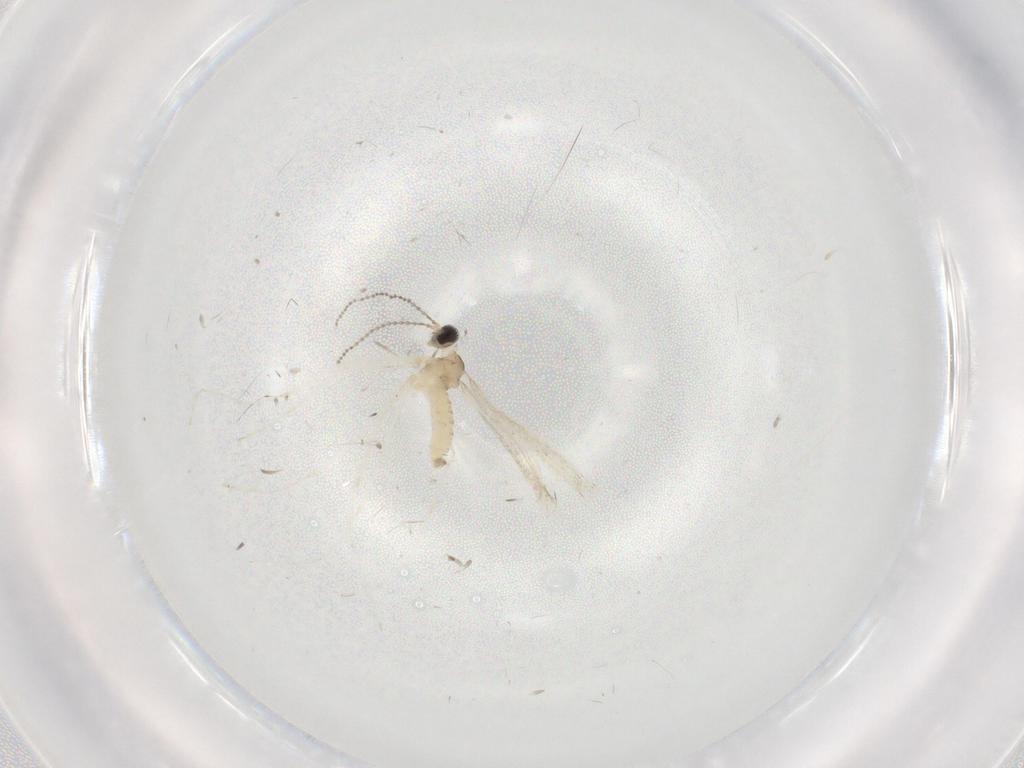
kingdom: Animalia
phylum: Arthropoda
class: Insecta
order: Diptera
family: Cecidomyiidae
